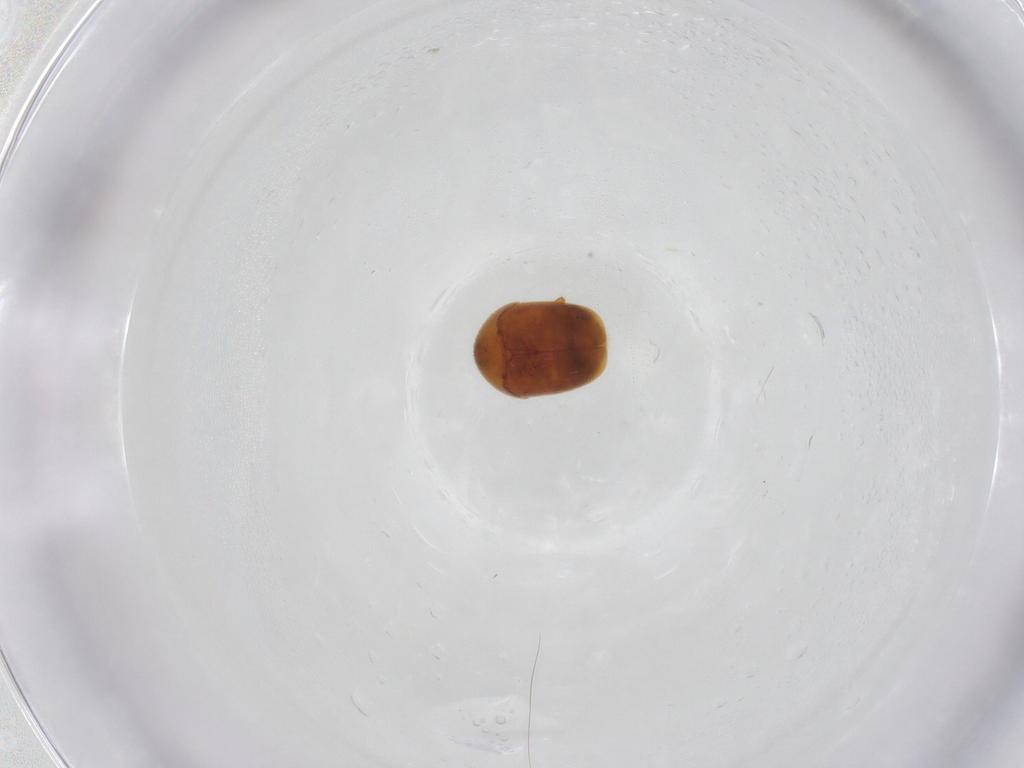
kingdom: Animalia
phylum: Arthropoda
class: Insecta
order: Coleoptera
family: Corylophidae
